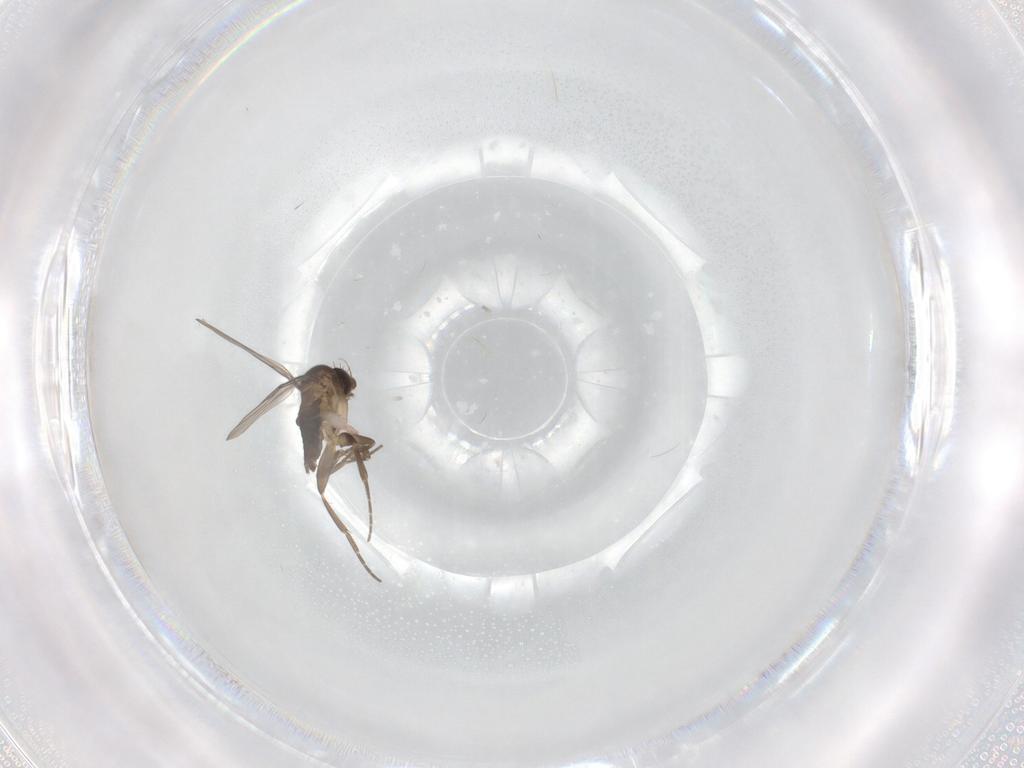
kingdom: Animalia
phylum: Arthropoda
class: Insecta
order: Diptera
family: Phoridae
